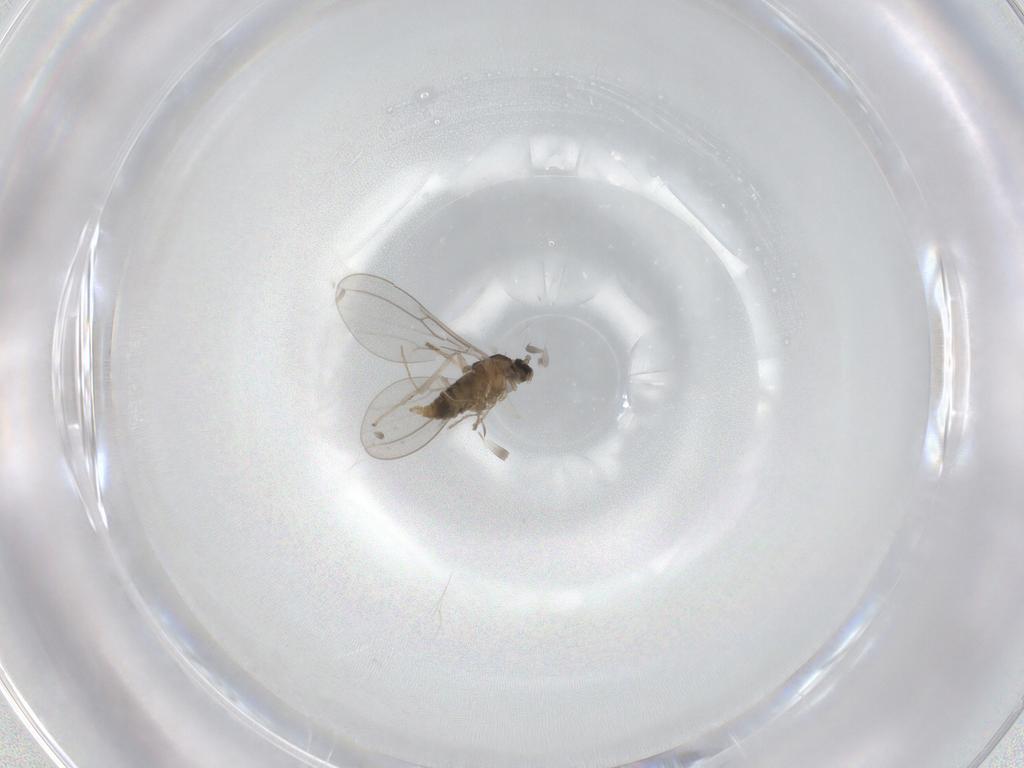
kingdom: Animalia
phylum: Arthropoda
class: Insecta
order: Diptera
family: Cecidomyiidae
